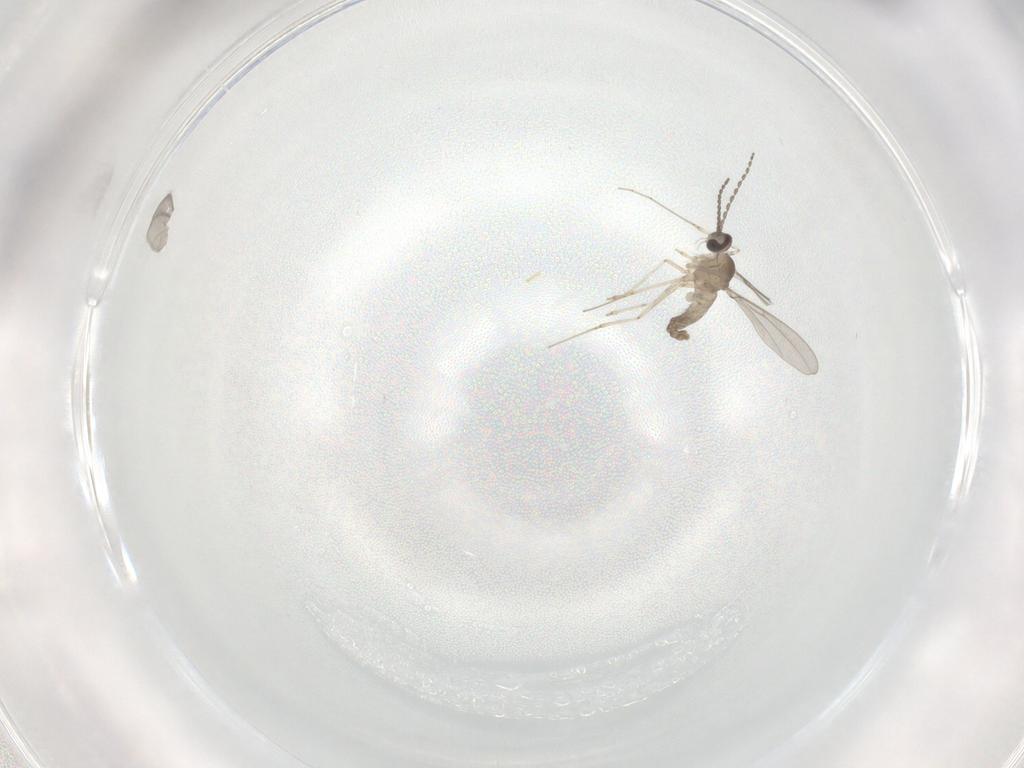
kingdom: Animalia
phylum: Arthropoda
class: Insecta
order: Diptera
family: Cecidomyiidae
